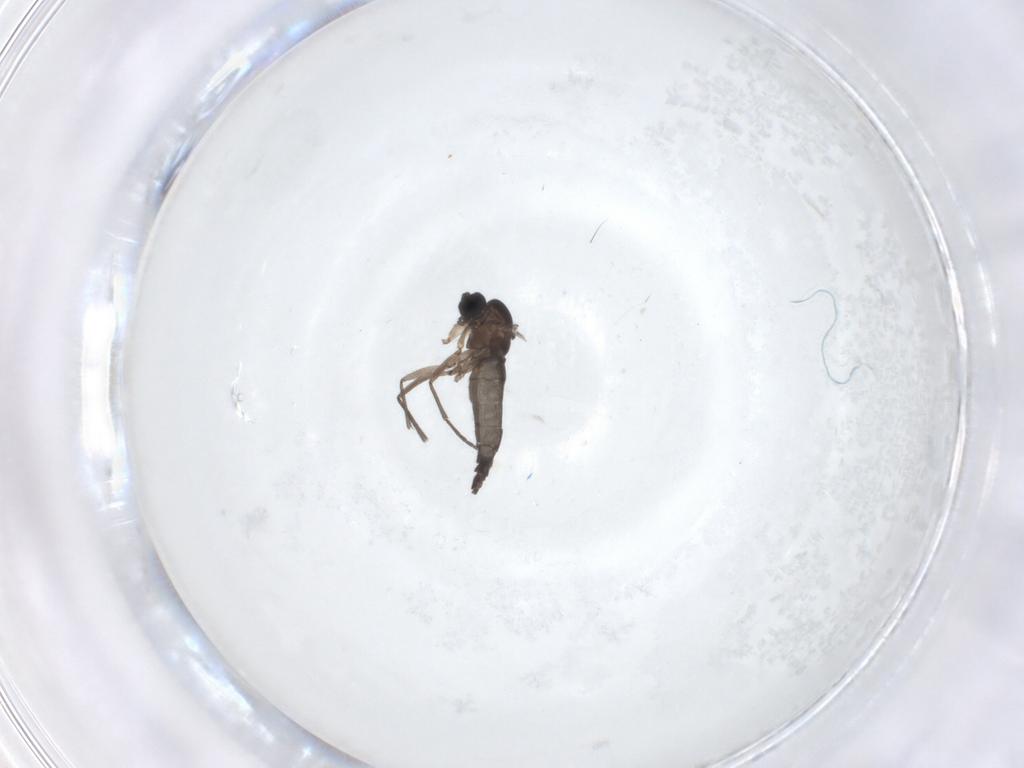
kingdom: Animalia
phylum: Arthropoda
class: Insecta
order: Diptera
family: Sciaridae
